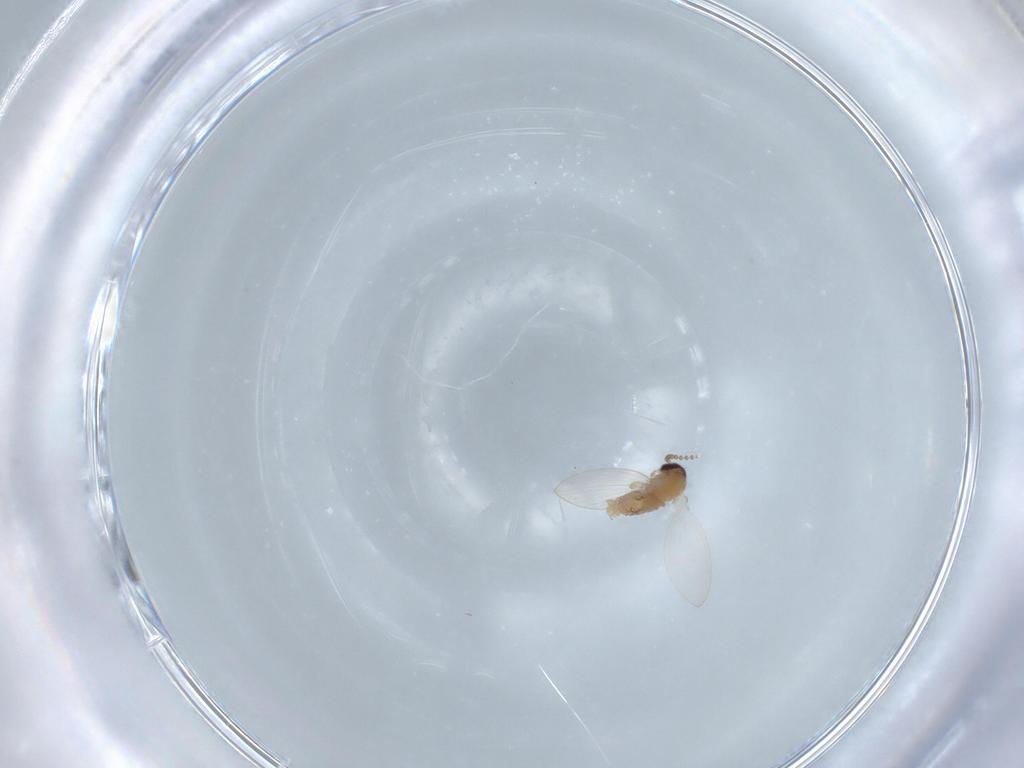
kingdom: Animalia
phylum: Arthropoda
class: Insecta
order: Diptera
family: Psychodidae
